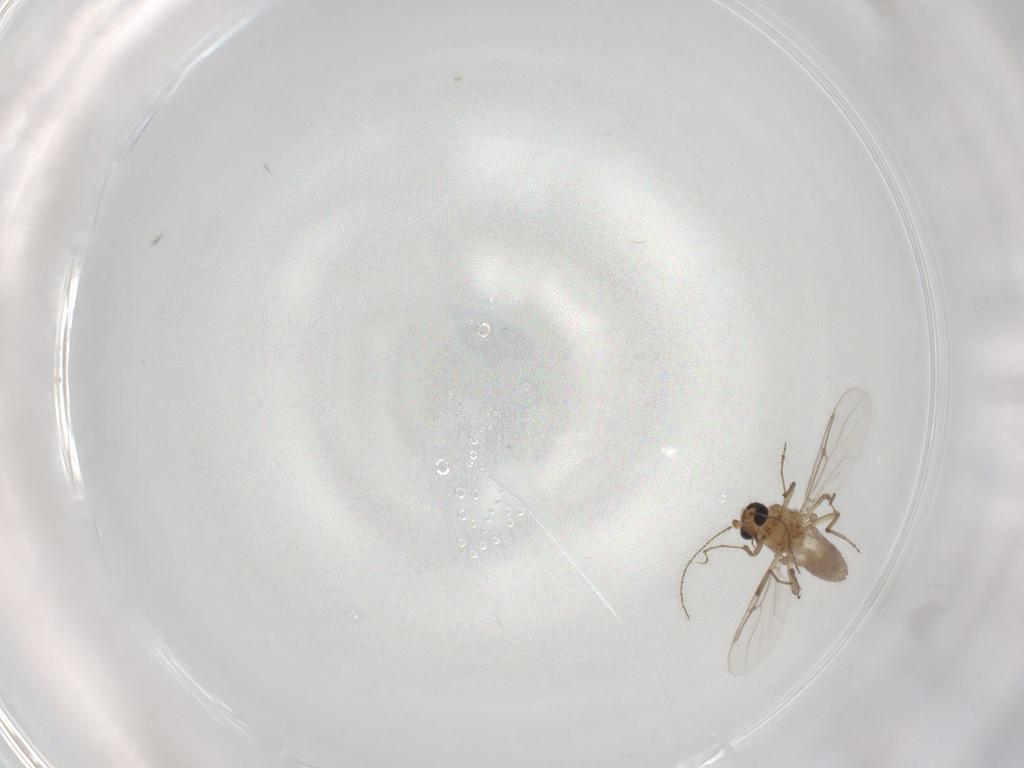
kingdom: Animalia
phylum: Arthropoda
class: Insecta
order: Diptera
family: Ceratopogonidae
